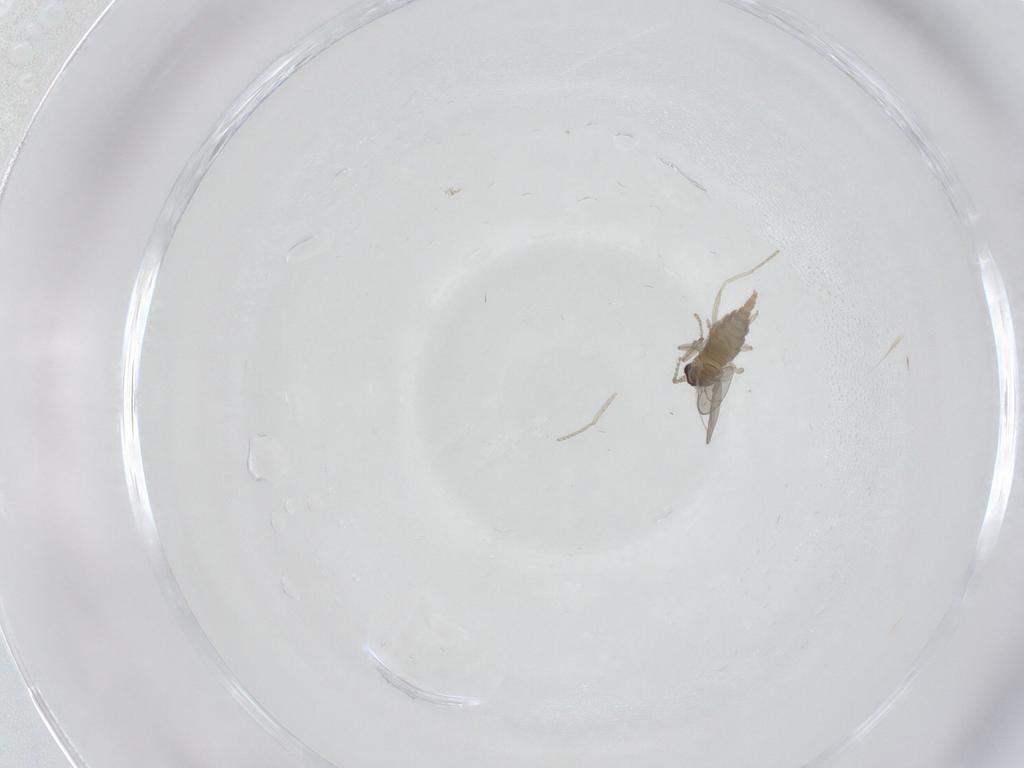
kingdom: Animalia
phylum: Arthropoda
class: Insecta
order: Diptera
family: Cecidomyiidae
